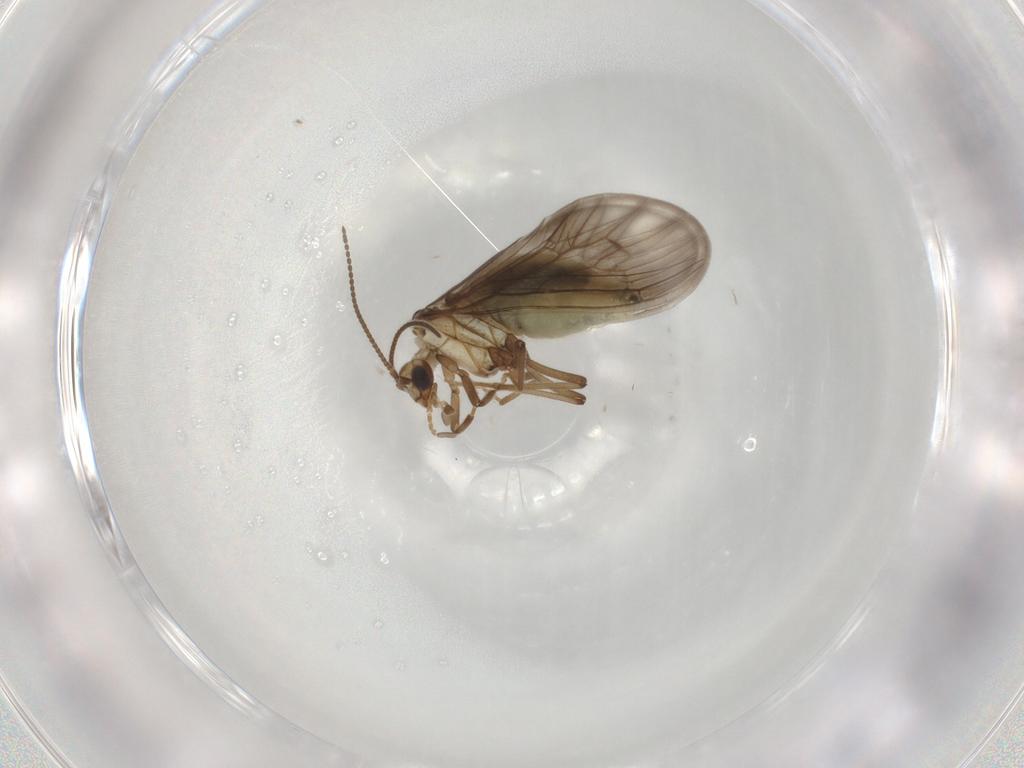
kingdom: Animalia
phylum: Arthropoda
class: Insecta
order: Neuroptera
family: Coniopterygidae
